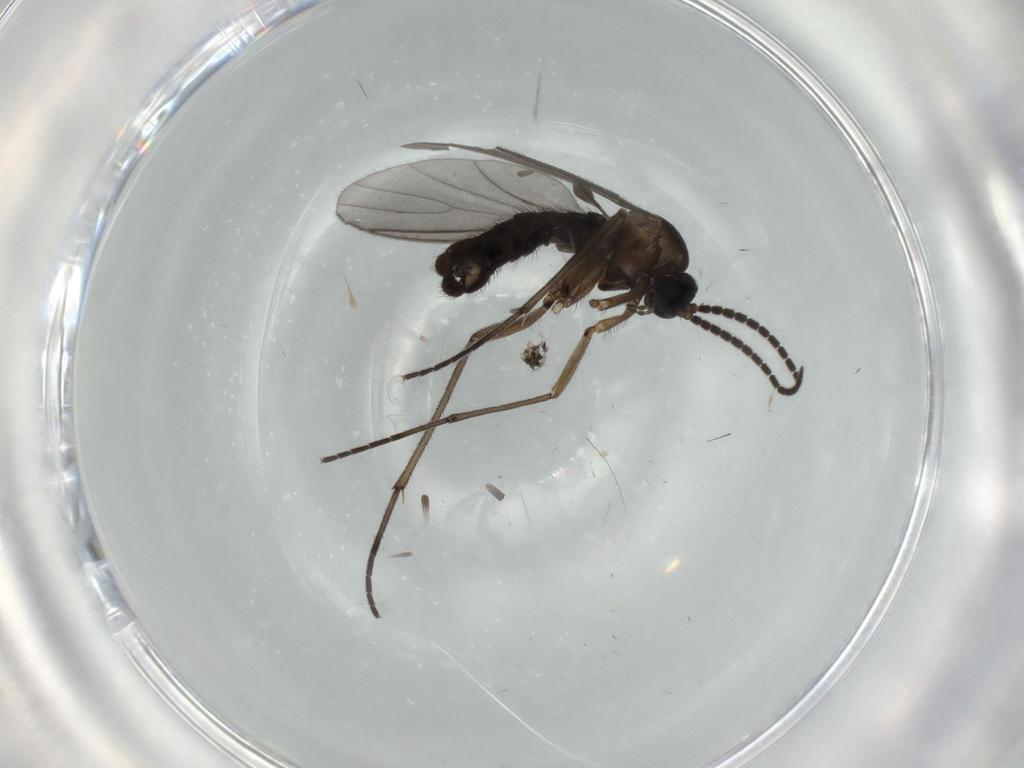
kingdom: Animalia
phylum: Arthropoda
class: Insecta
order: Diptera
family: Sciaridae
